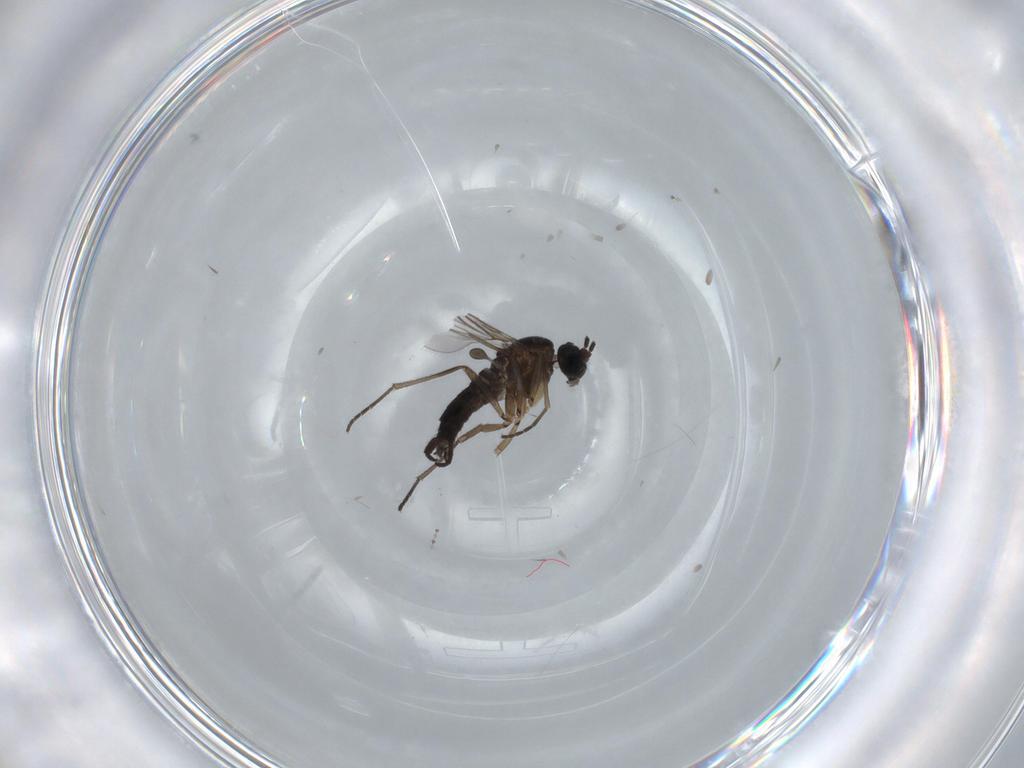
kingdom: Animalia
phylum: Arthropoda
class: Insecta
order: Diptera
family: Sciaridae
